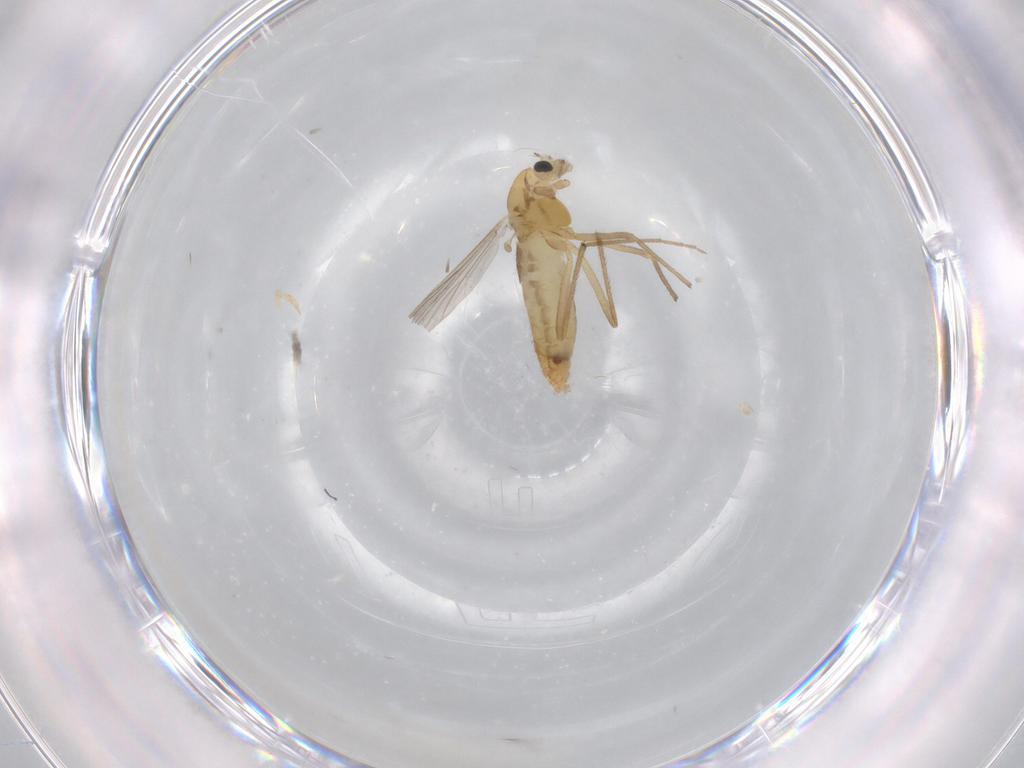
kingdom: Animalia
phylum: Arthropoda
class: Insecta
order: Diptera
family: Chironomidae
